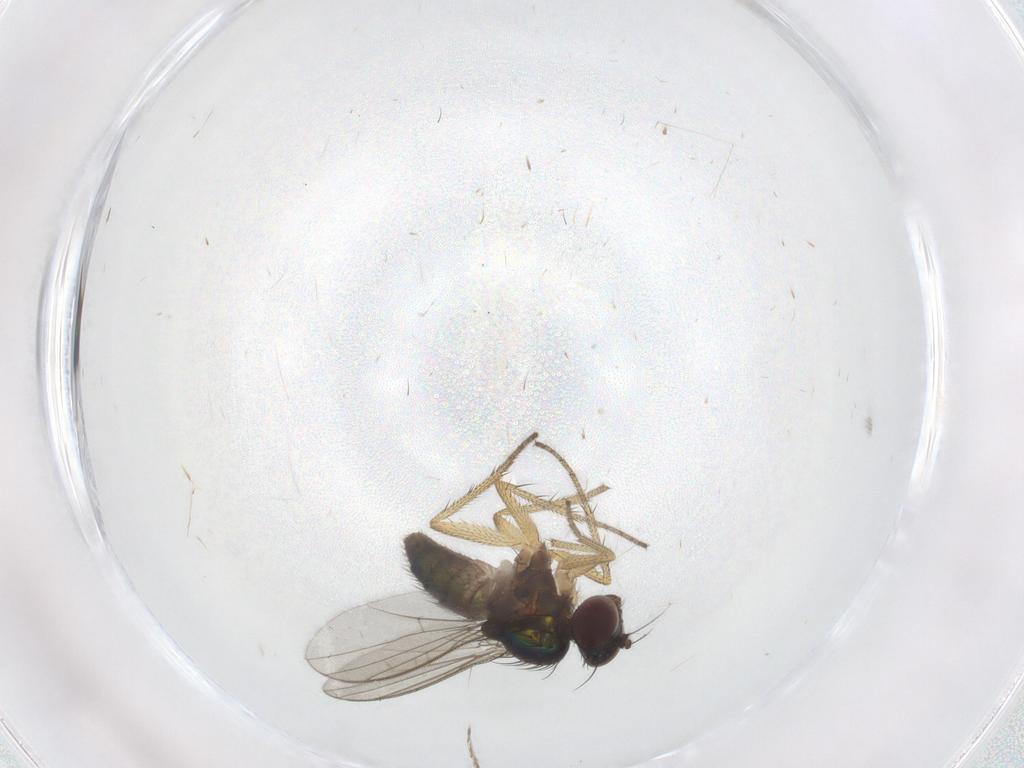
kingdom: Animalia
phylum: Arthropoda
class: Insecta
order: Diptera
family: Dolichopodidae
